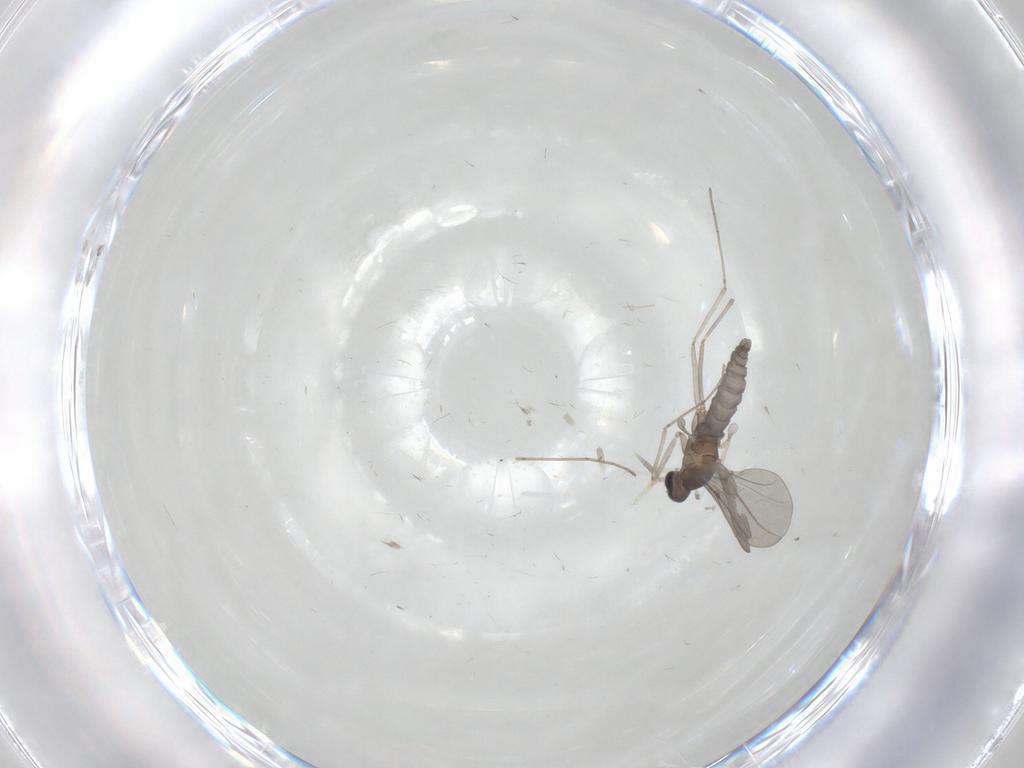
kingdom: Animalia
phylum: Arthropoda
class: Insecta
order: Diptera
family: Cecidomyiidae
